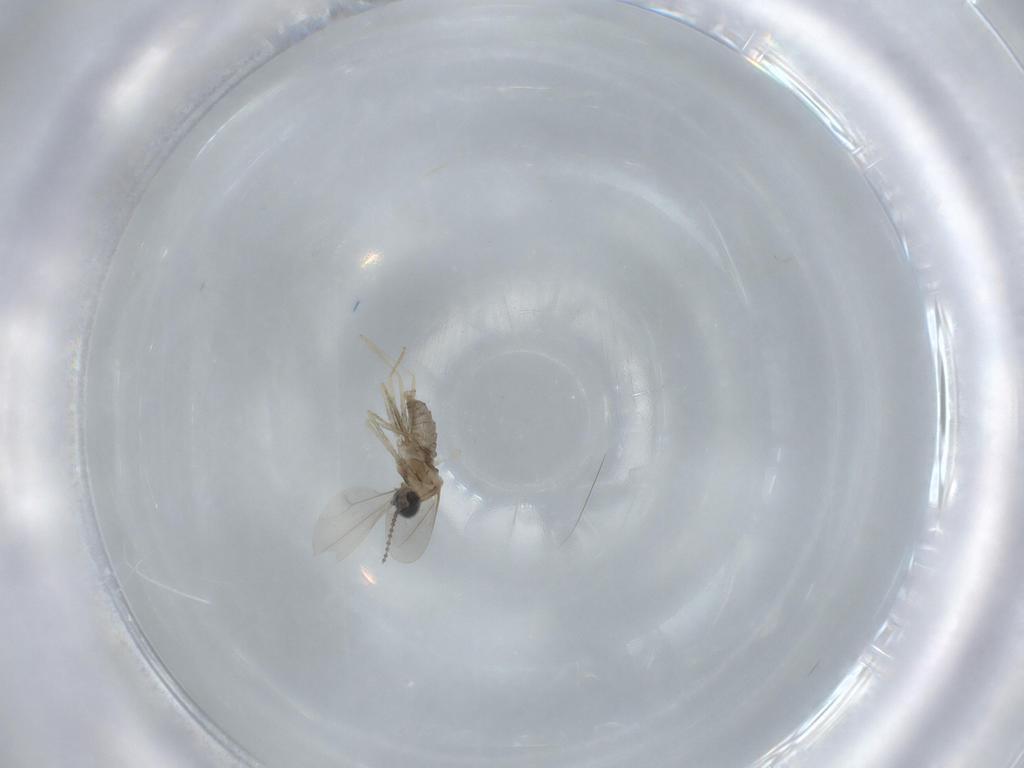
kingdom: Animalia
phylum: Arthropoda
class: Insecta
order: Diptera
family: Cecidomyiidae
